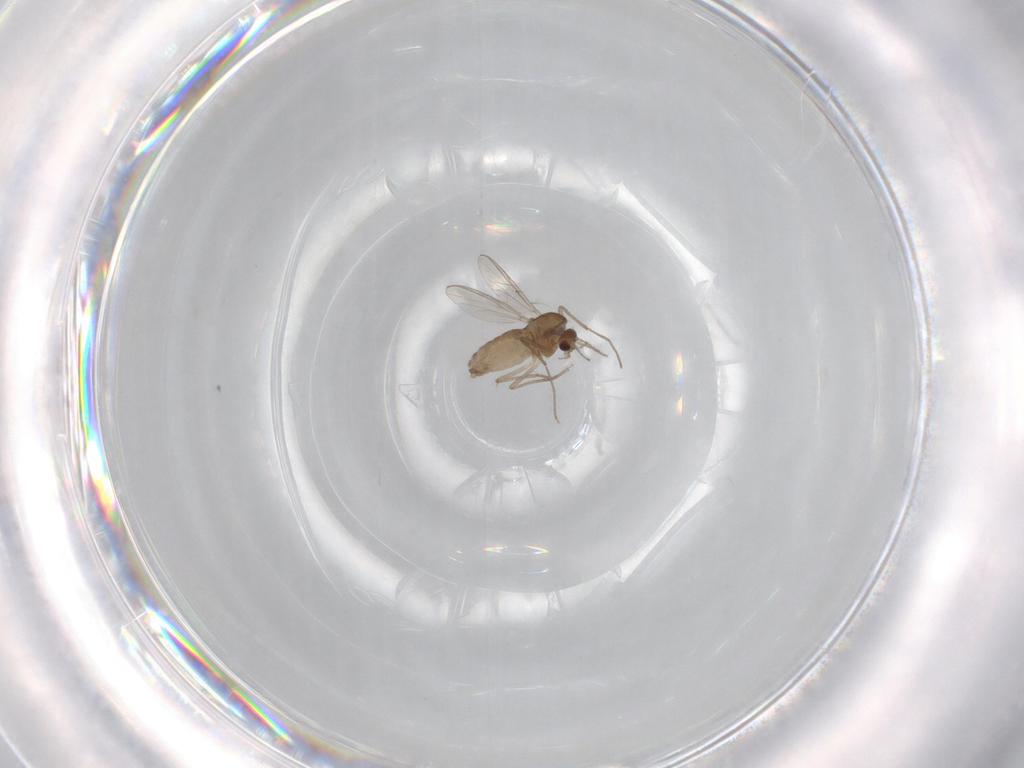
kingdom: Animalia
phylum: Arthropoda
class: Insecta
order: Diptera
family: Chironomidae
